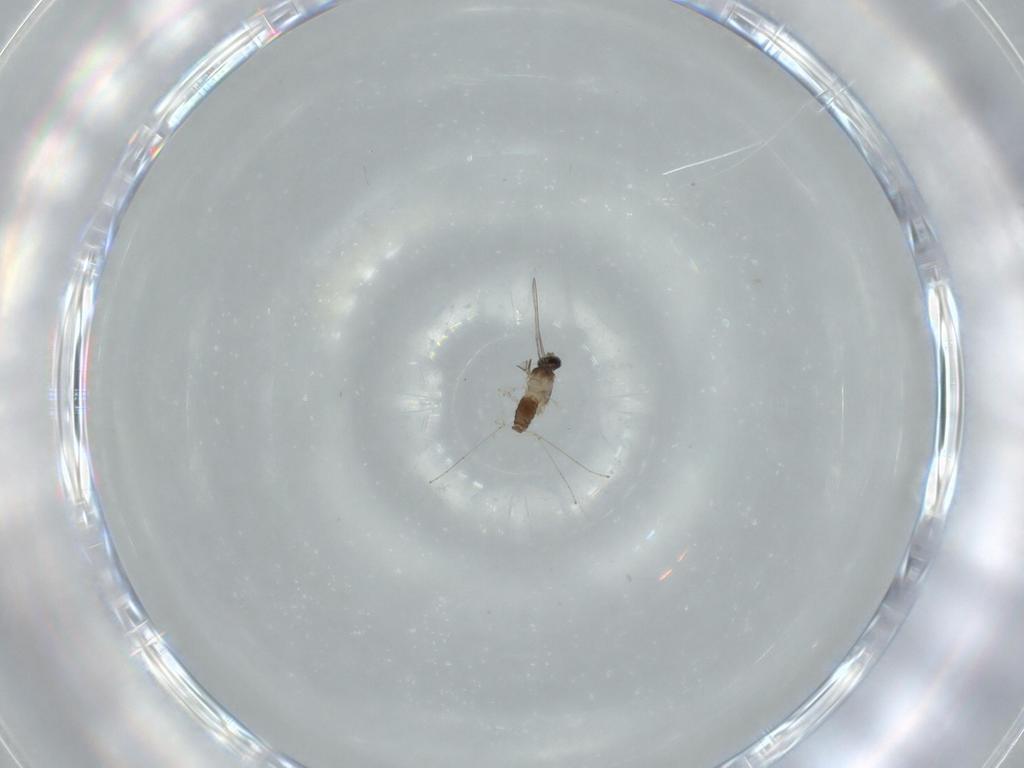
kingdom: Animalia
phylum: Arthropoda
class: Insecta
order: Diptera
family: Cecidomyiidae
